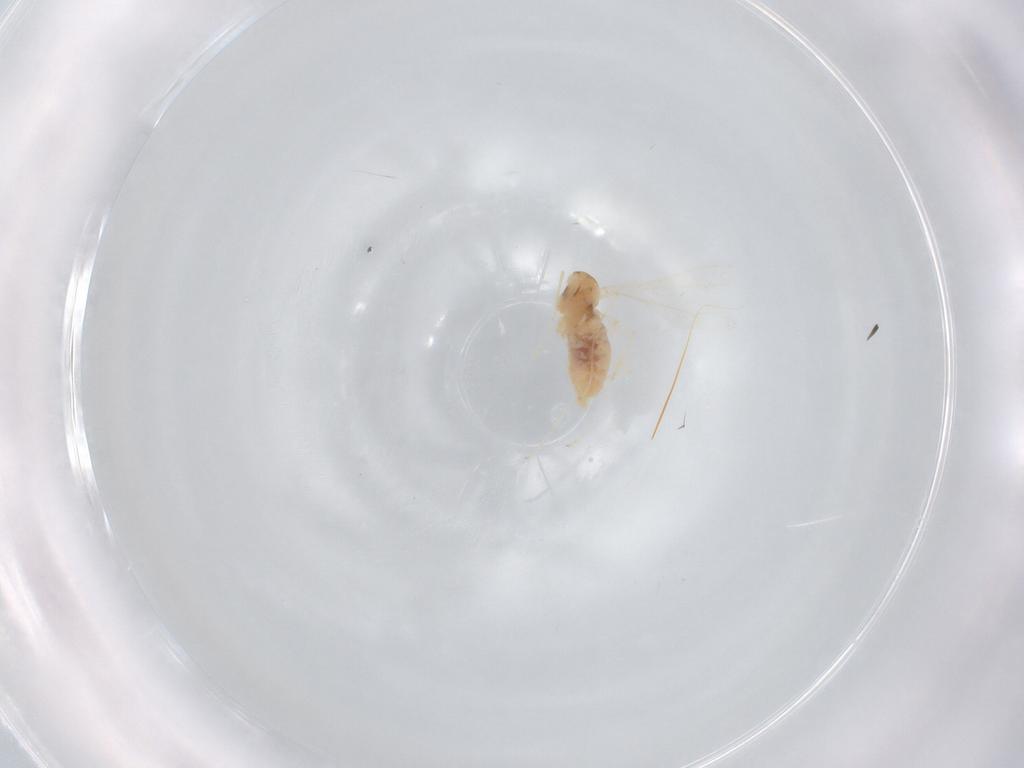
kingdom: Animalia
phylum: Arthropoda
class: Insecta
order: Diptera
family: Cecidomyiidae
